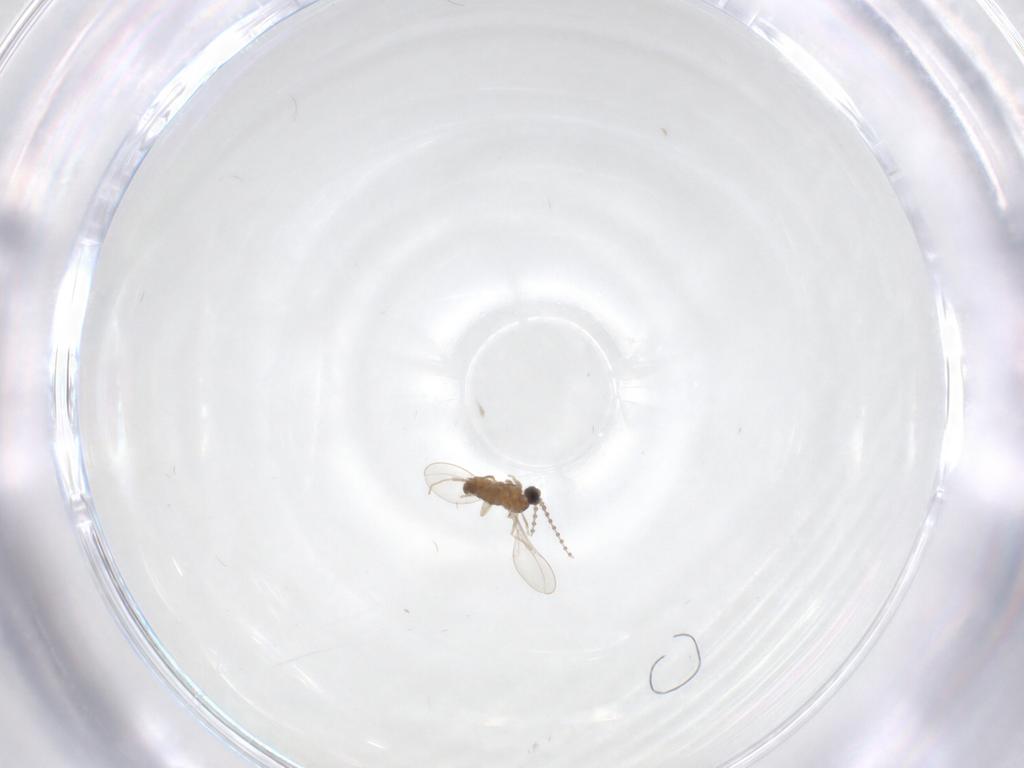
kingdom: Animalia
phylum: Arthropoda
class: Insecta
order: Diptera
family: Cecidomyiidae
